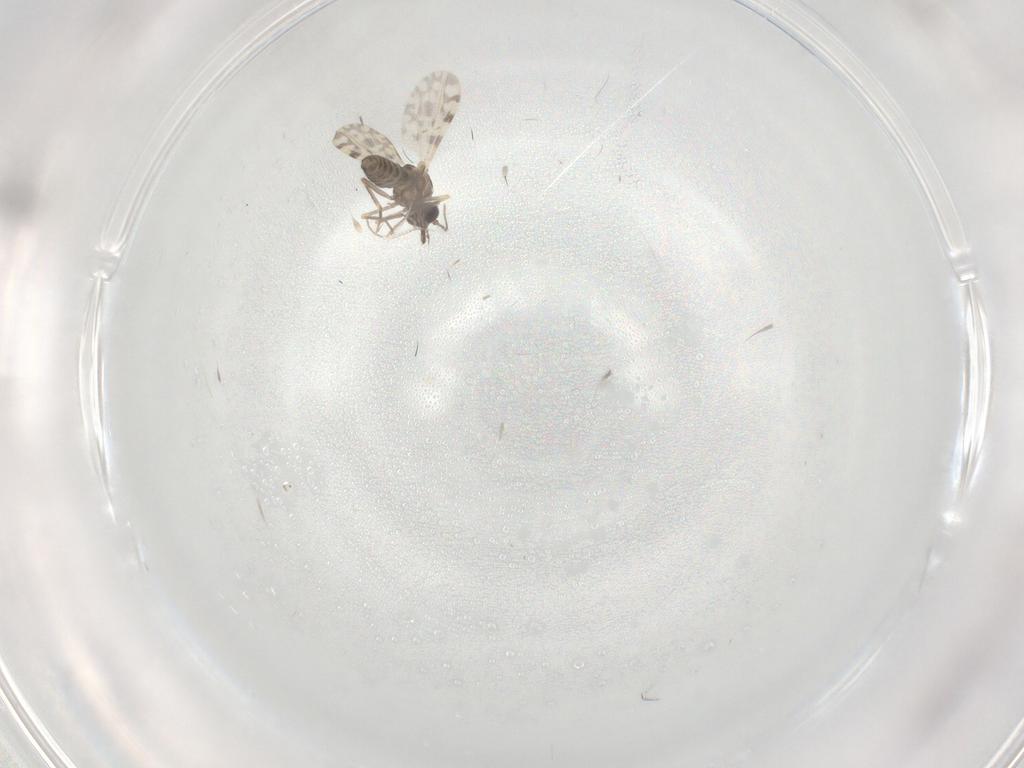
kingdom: Animalia
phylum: Arthropoda
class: Insecta
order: Diptera
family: Ceratopogonidae
